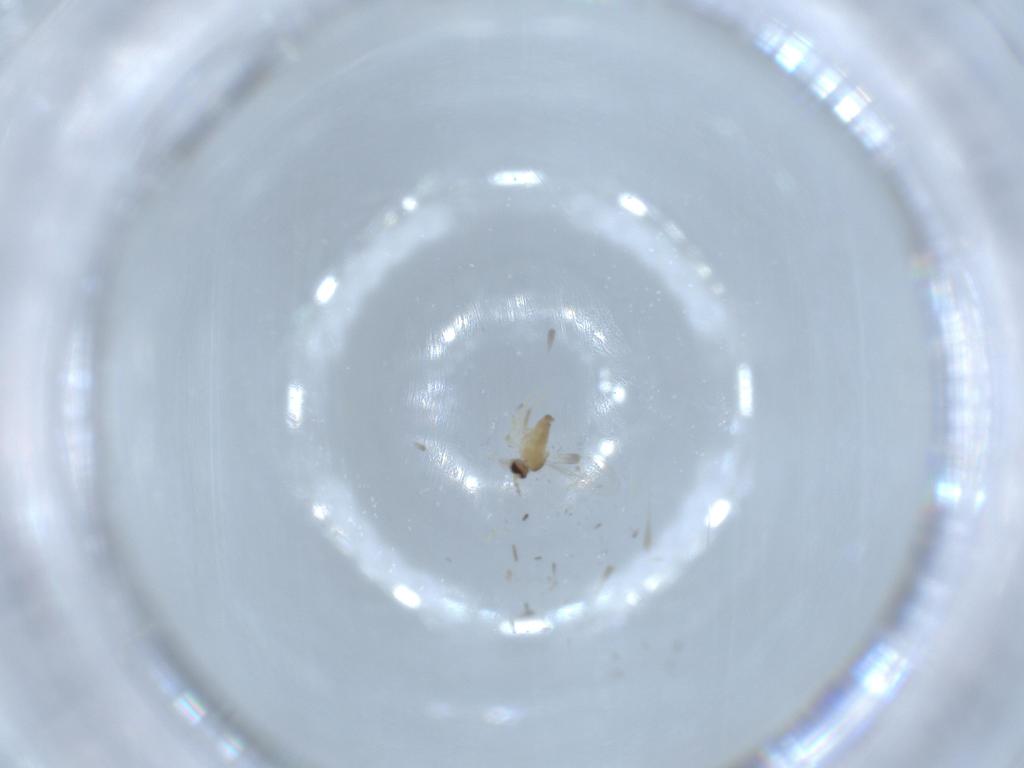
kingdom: Animalia
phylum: Arthropoda
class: Insecta
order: Diptera
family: Cecidomyiidae
